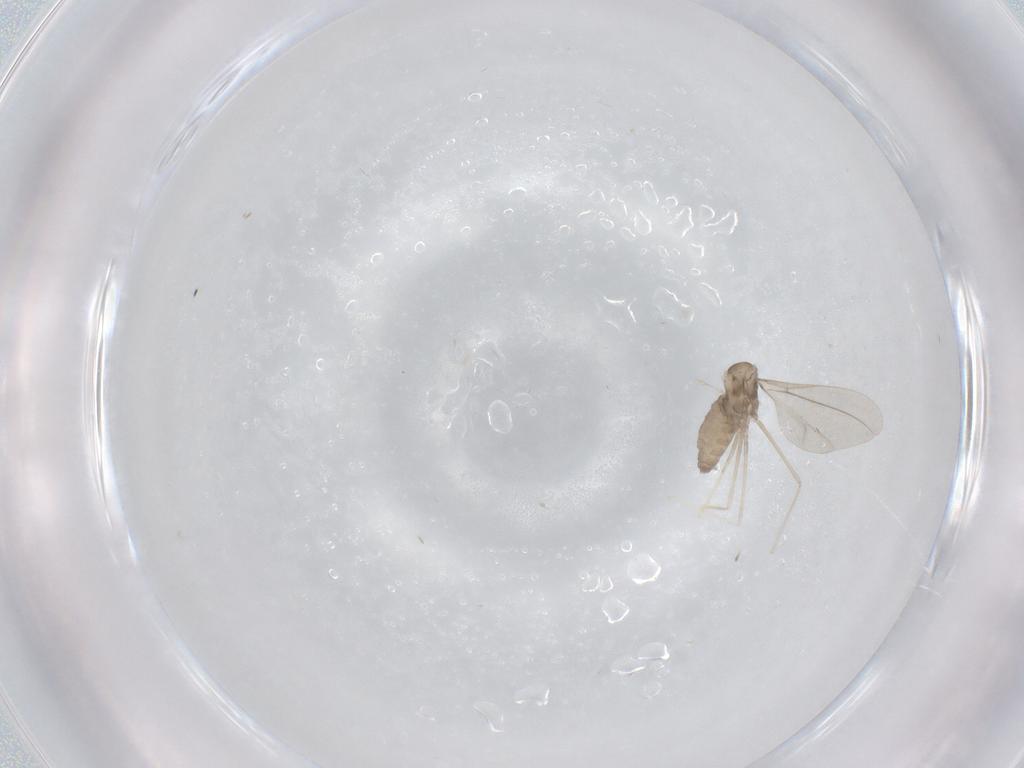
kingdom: Animalia
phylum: Arthropoda
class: Insecta
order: Diptera
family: Cecidomyiidae
